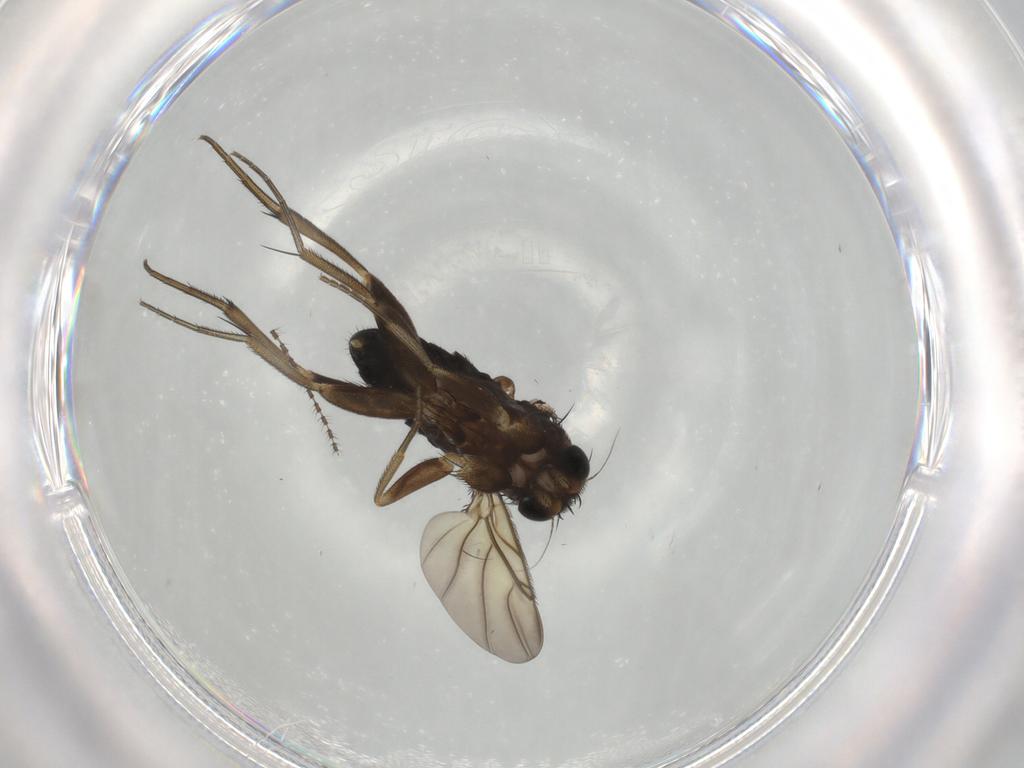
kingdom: Animalia
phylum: Arthropoda
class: Insecta
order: Diptera
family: Phoridae
